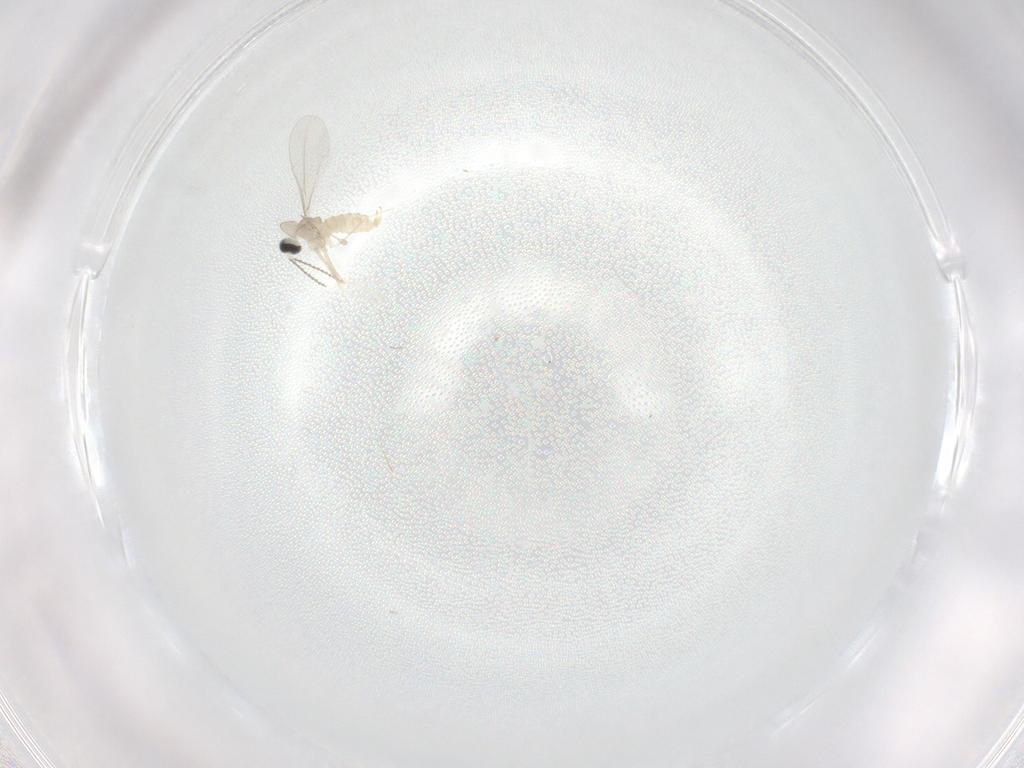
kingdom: Animalia
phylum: Arthropoda
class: Insecta
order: Diptera
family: Cecidomyiidae
